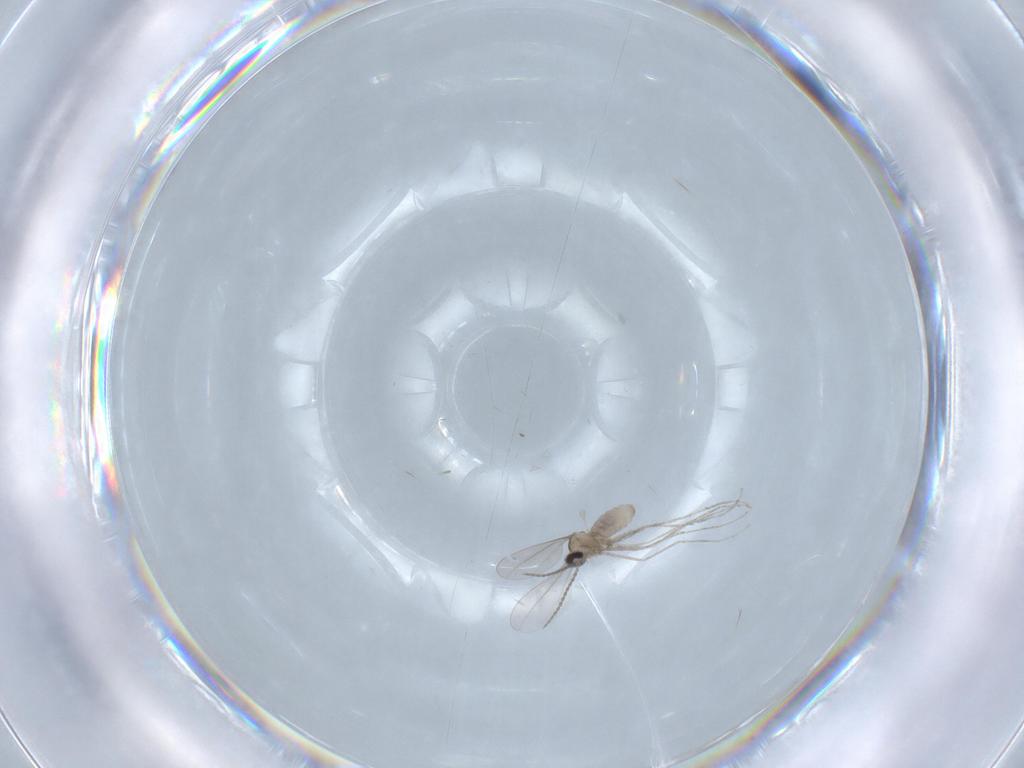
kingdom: Animalia
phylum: Arthropoda
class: Insecta
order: Diptera
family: Cecidomyiidae
